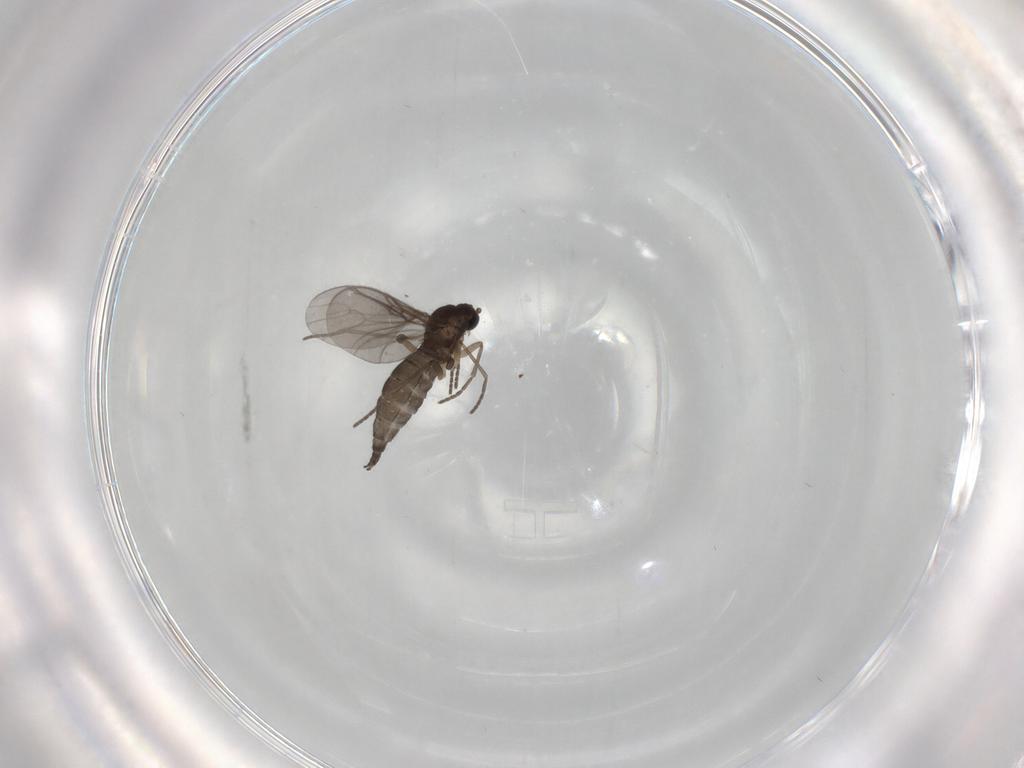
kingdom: Animalia
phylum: Arthropoda
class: Insecta
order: Diptera
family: Sciaridae
